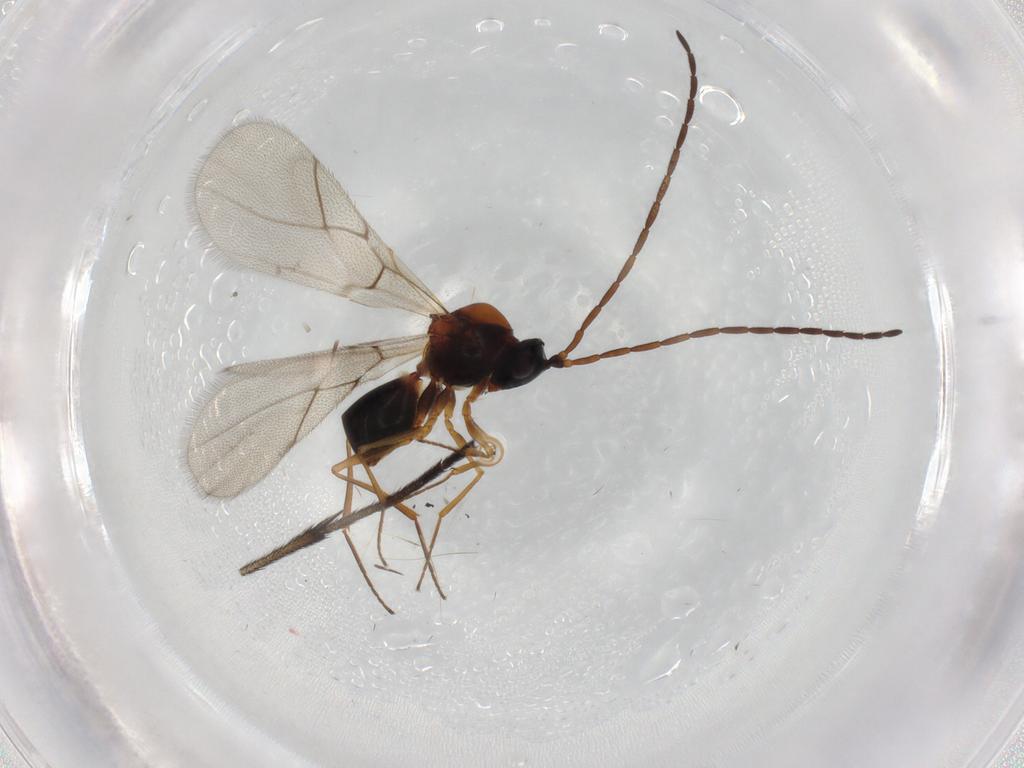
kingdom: Animalia
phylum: Arthropoda
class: Insecta
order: Hymenoptera
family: Figitidae
